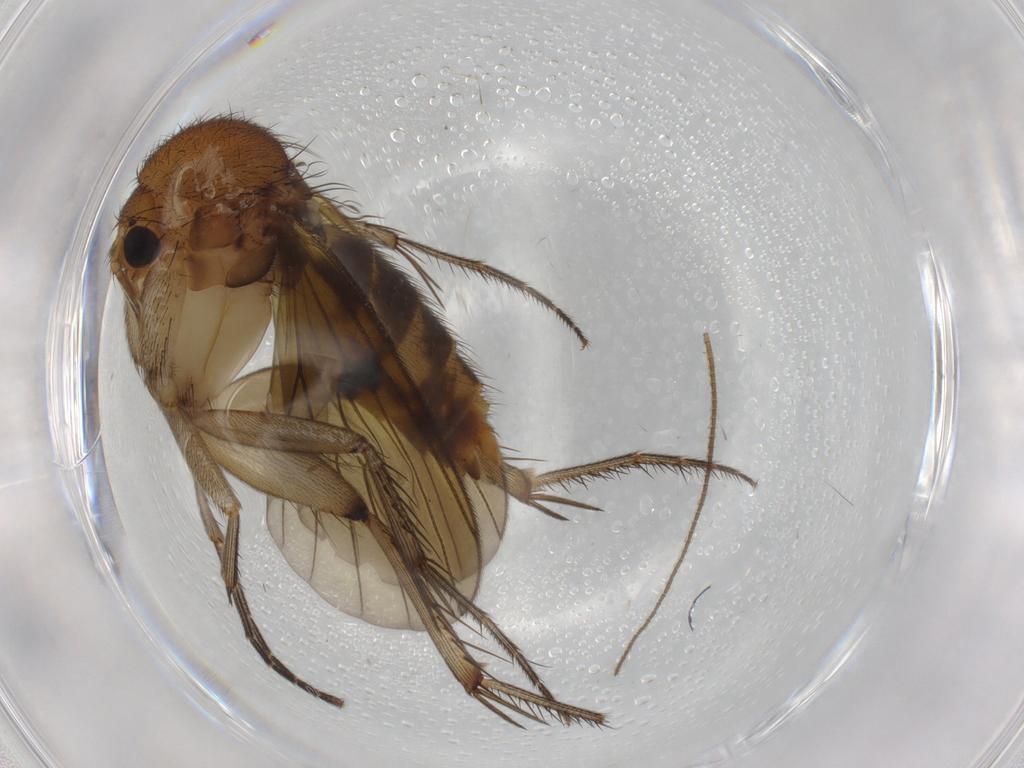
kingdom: Animalia
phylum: Arthropoda
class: Insecta
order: Diptera
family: Mycetophilidae
